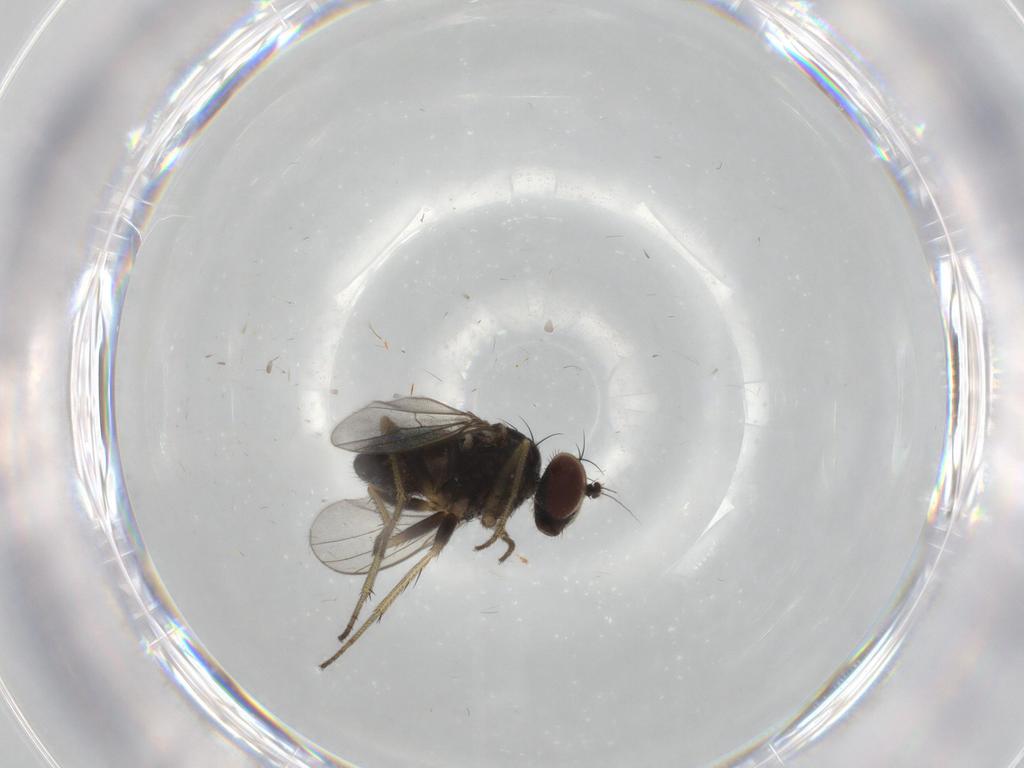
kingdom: Animalia
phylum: Arthropoda
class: Insecta
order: Diptera
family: Dolichopodidae
